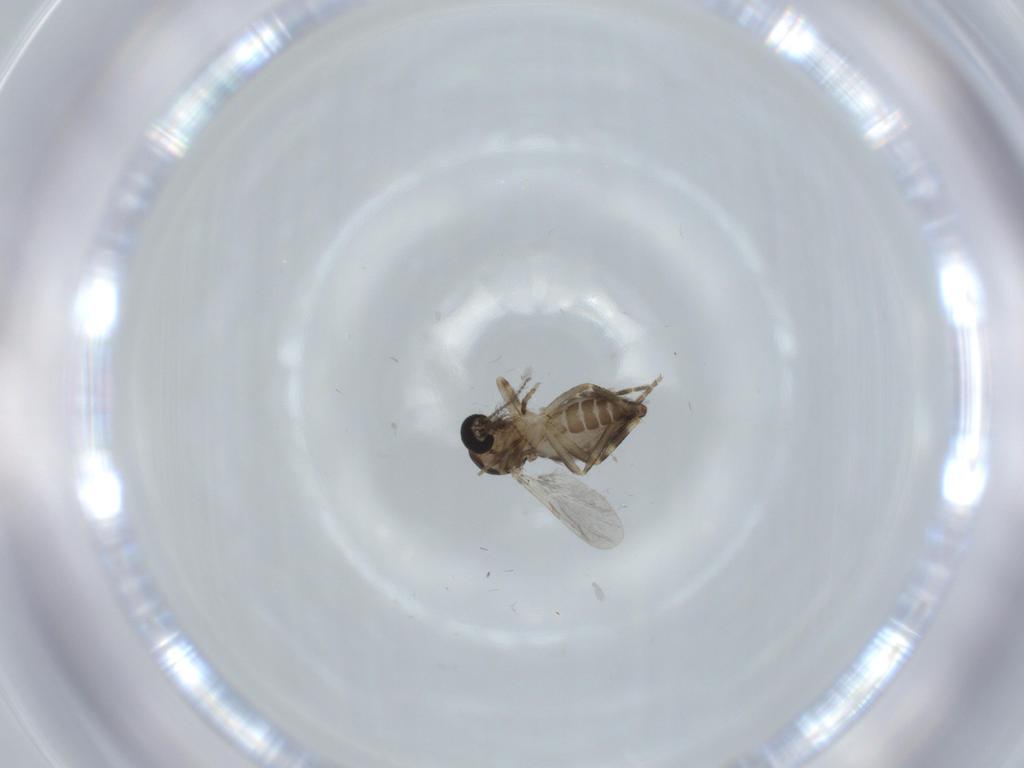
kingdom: Animalia
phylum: Arthropoda
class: Insecta
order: Diptera
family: Ceratopogonidae
